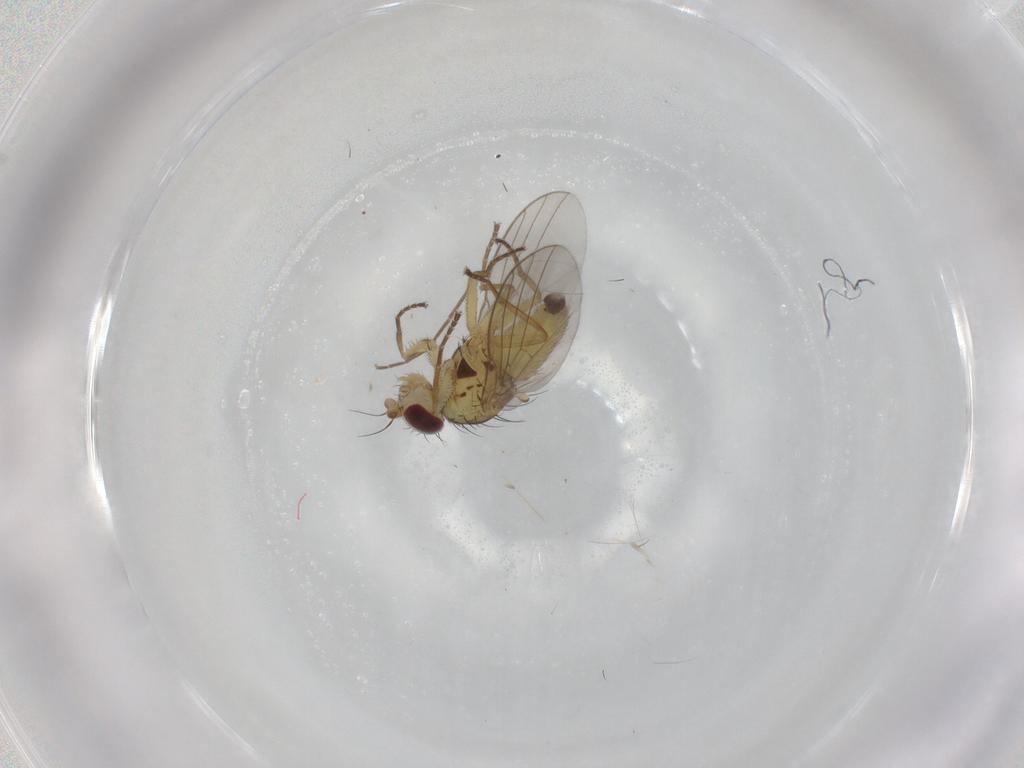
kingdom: Animalia
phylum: Arthropoda
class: Insecta
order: Diptera
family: Agromyzidae
